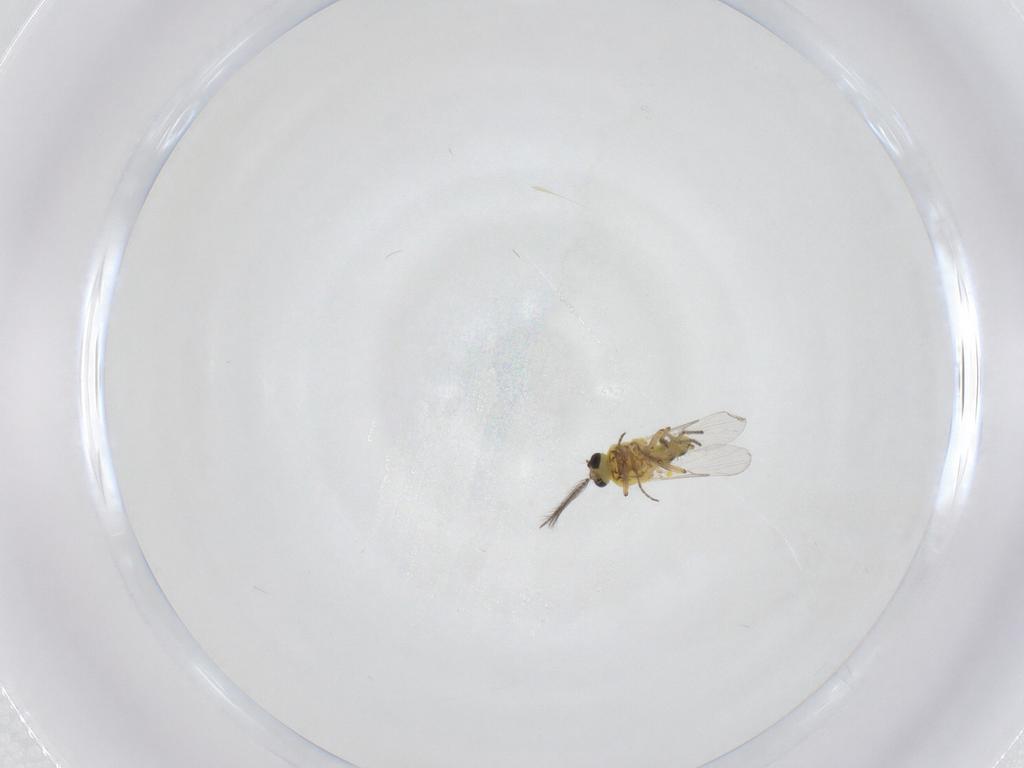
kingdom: Animalia
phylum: Arthropoda
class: Insecta
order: Diptera
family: Ceratopogonidae
